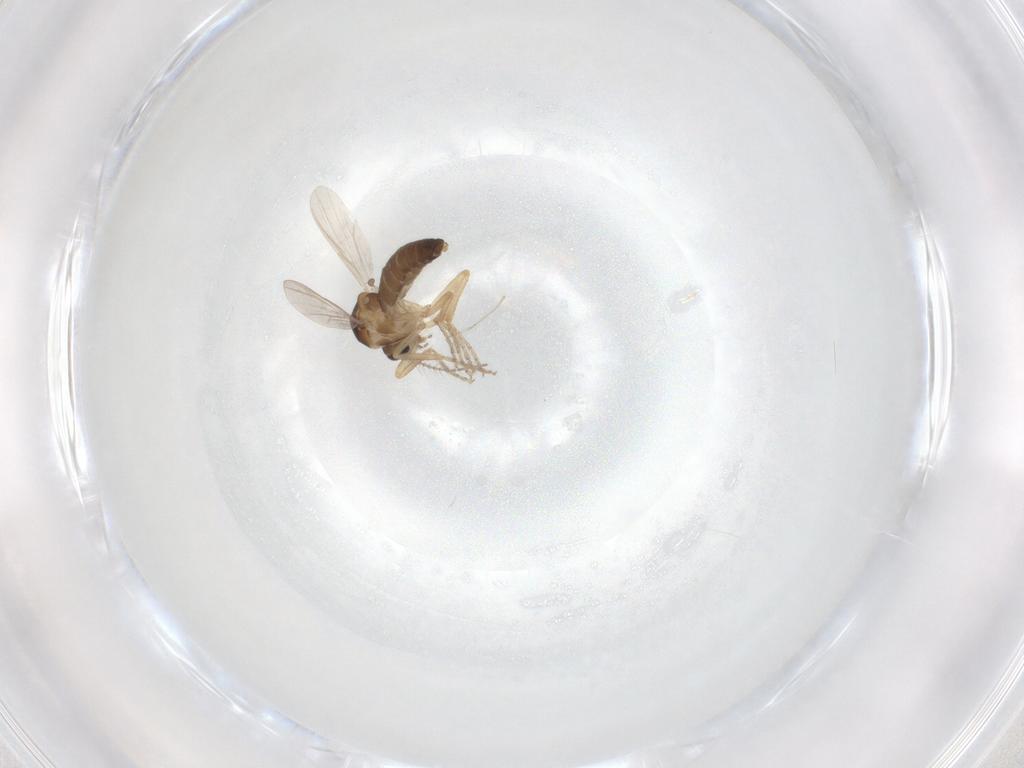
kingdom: Animalia
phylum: Arthropoda
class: Insecta
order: Diptera
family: Ceratopogonidae
